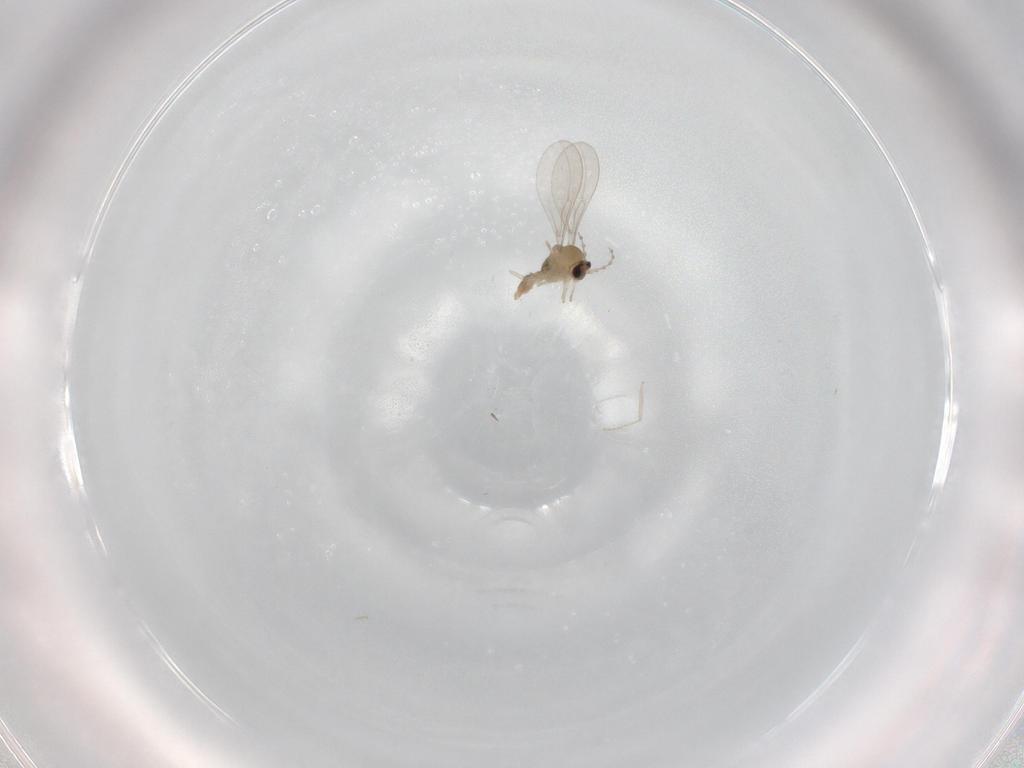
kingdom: Animalia
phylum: Arthropoda
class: Insecta
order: Diptera
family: Cecidomyiidae
